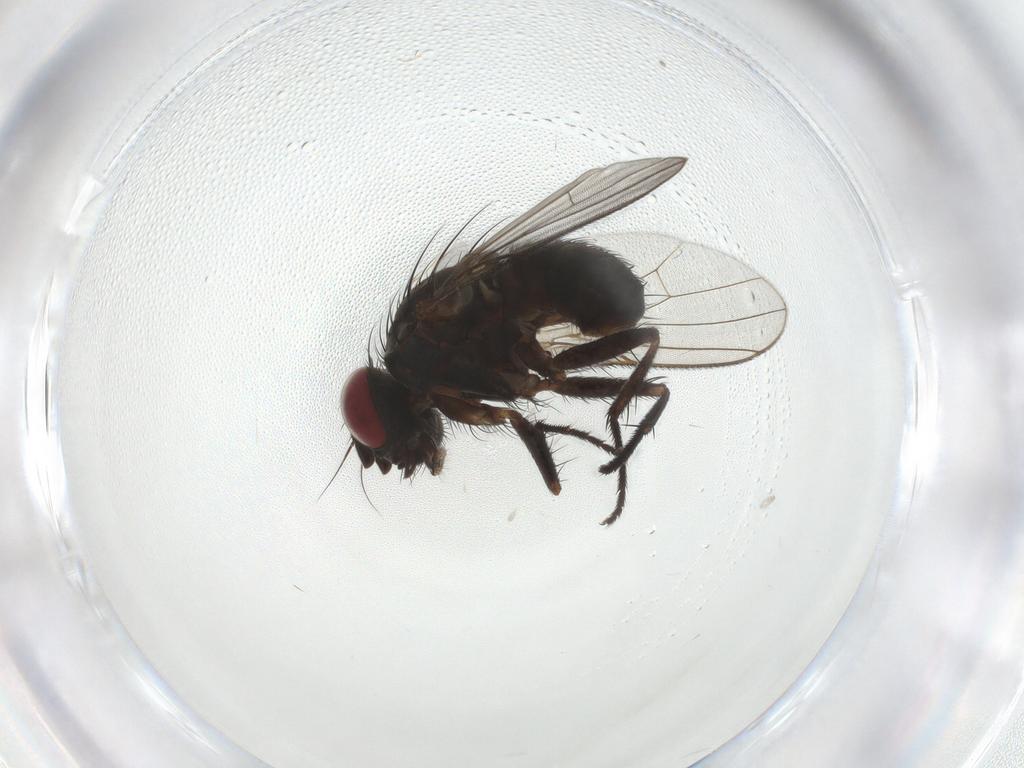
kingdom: Animalia
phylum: Arthropoda
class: Insecta
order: Diptera
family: Muscidae
